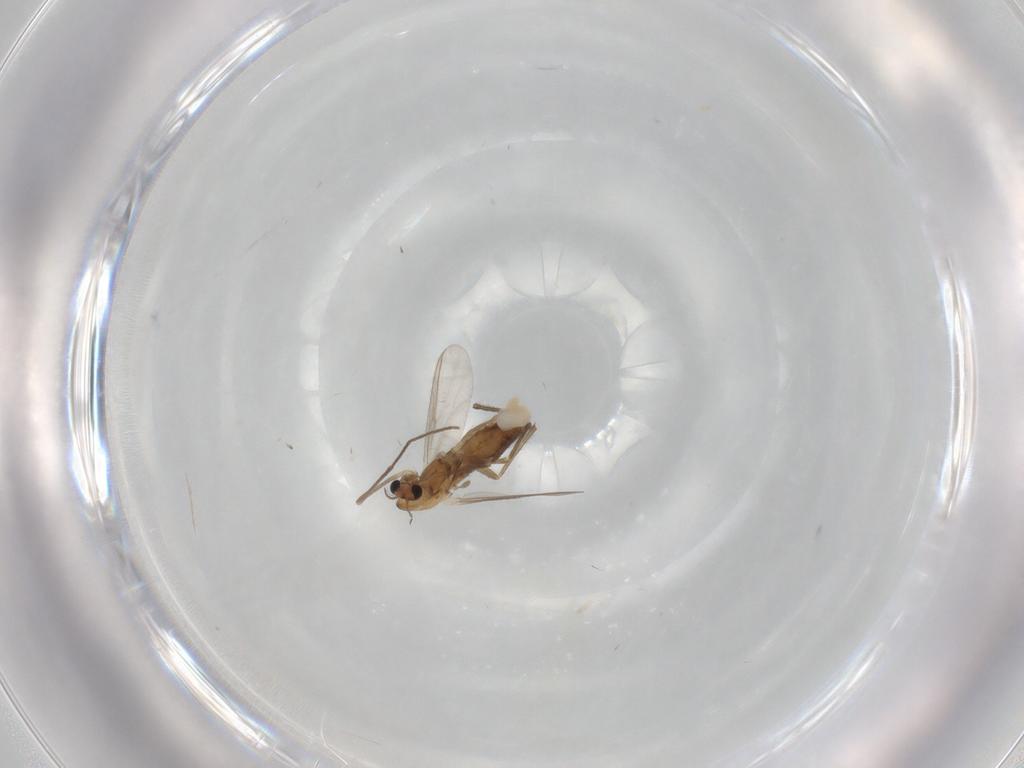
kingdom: Animalia
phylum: Arthropoda
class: Insecta
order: Diptera
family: Chironomidae
